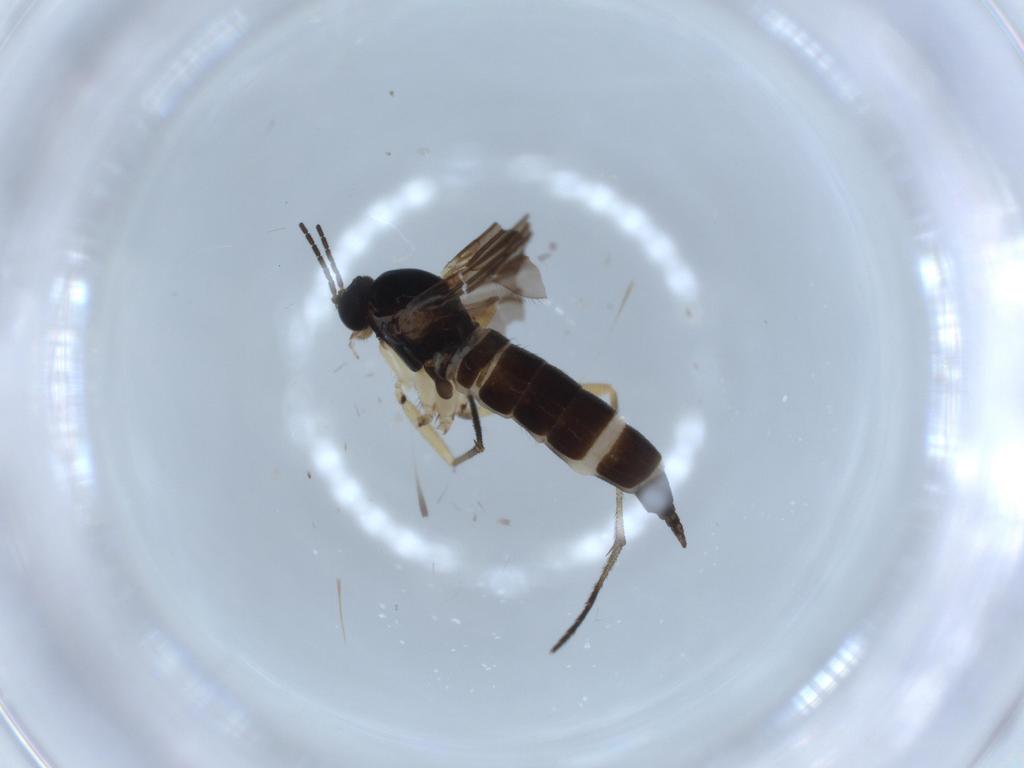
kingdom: Animalia
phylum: Arthropoda
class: Insecta
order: Diptera
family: Sciaridae
